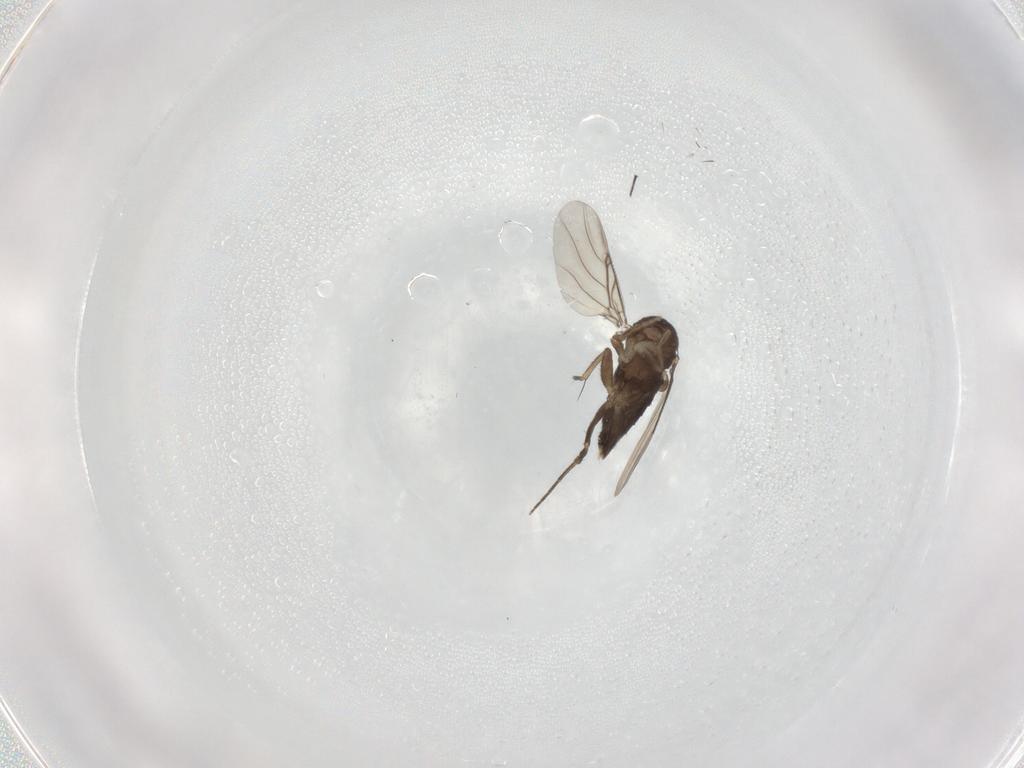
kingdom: Animalia
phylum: Arthropoda
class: Insecta
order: Diptera
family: Phoridae
